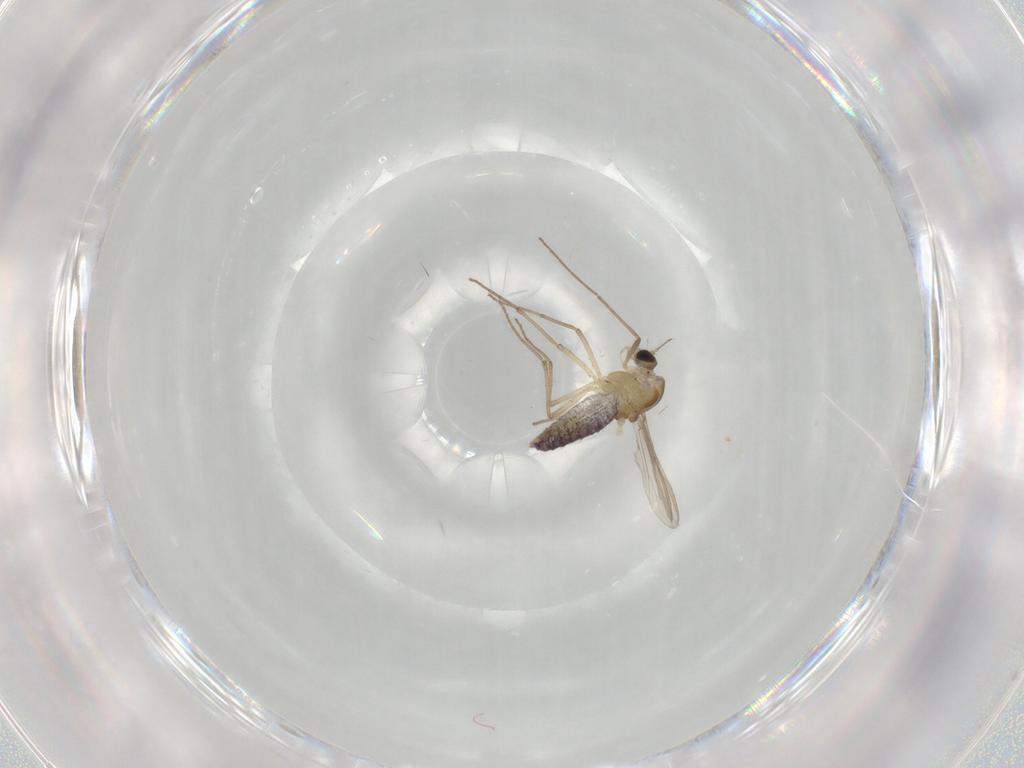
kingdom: Animalia
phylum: Arthropoda
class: Insecta
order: Diptera
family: Chironomidae
